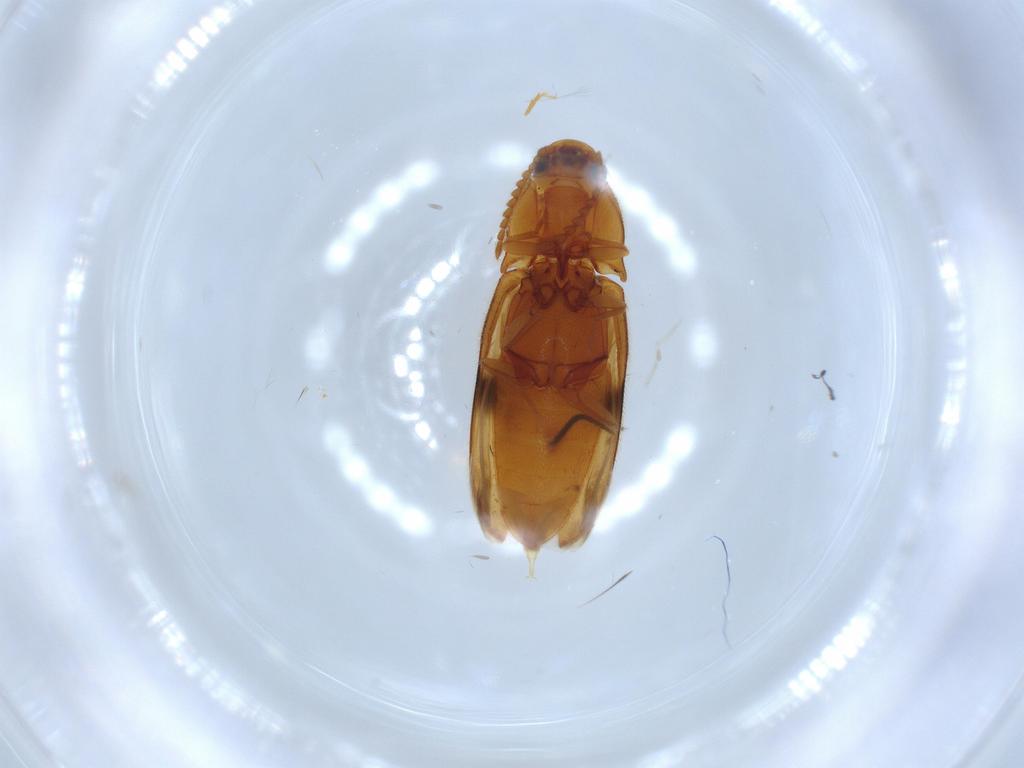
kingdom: Animalia
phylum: Arthropoda
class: Insecta
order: Coleoptera
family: Elateridae
